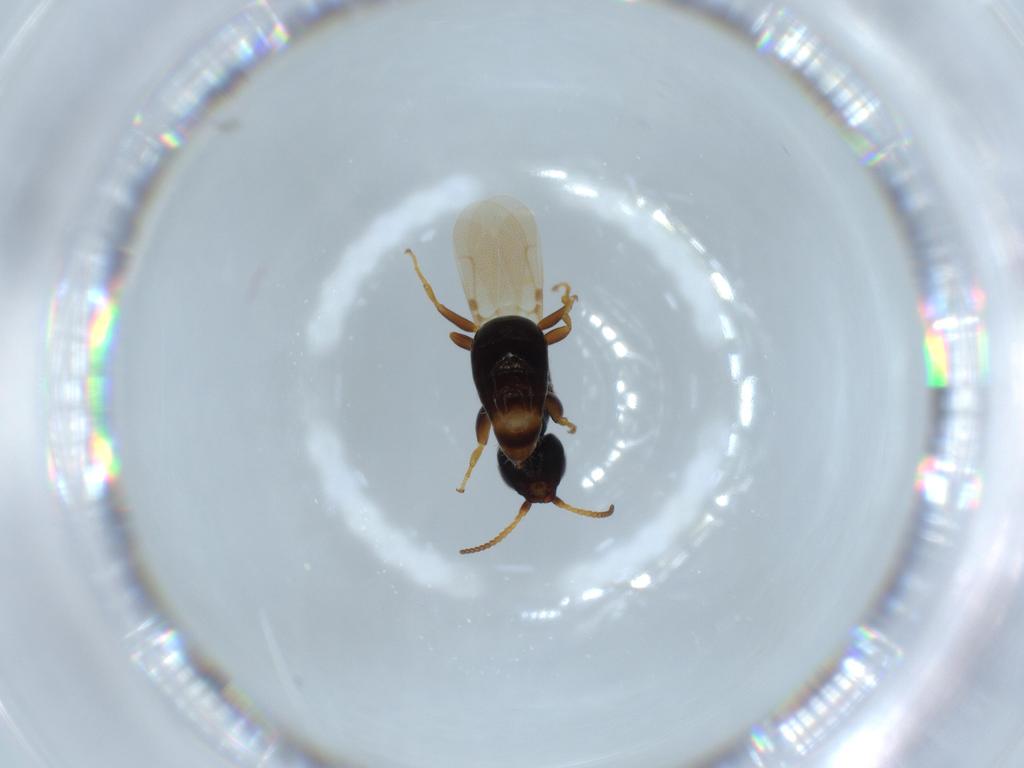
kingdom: Animalia
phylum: Arthropoda
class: Insecta
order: Hymenoptera
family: Bethylidae
